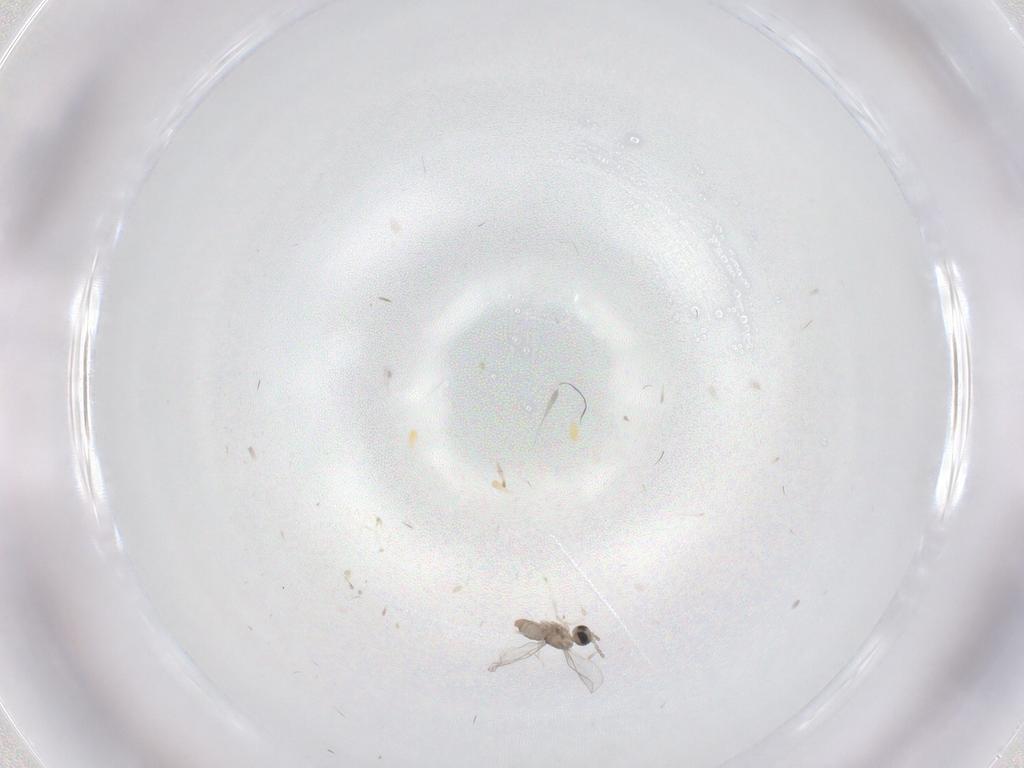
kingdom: Animalia
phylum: Arthropoda
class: Insecta
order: Diptera
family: Cecidomyiidae
